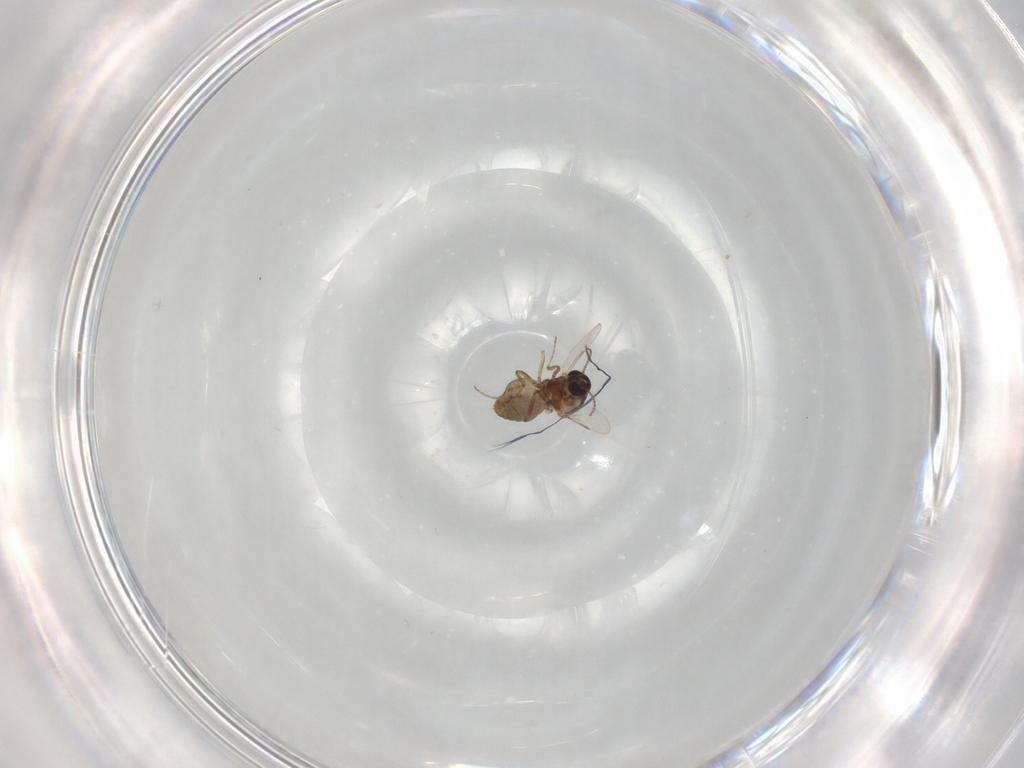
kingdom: Animalia
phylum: Arthropoda
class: Insecta
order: Diptera
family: Ceratopogonidae
